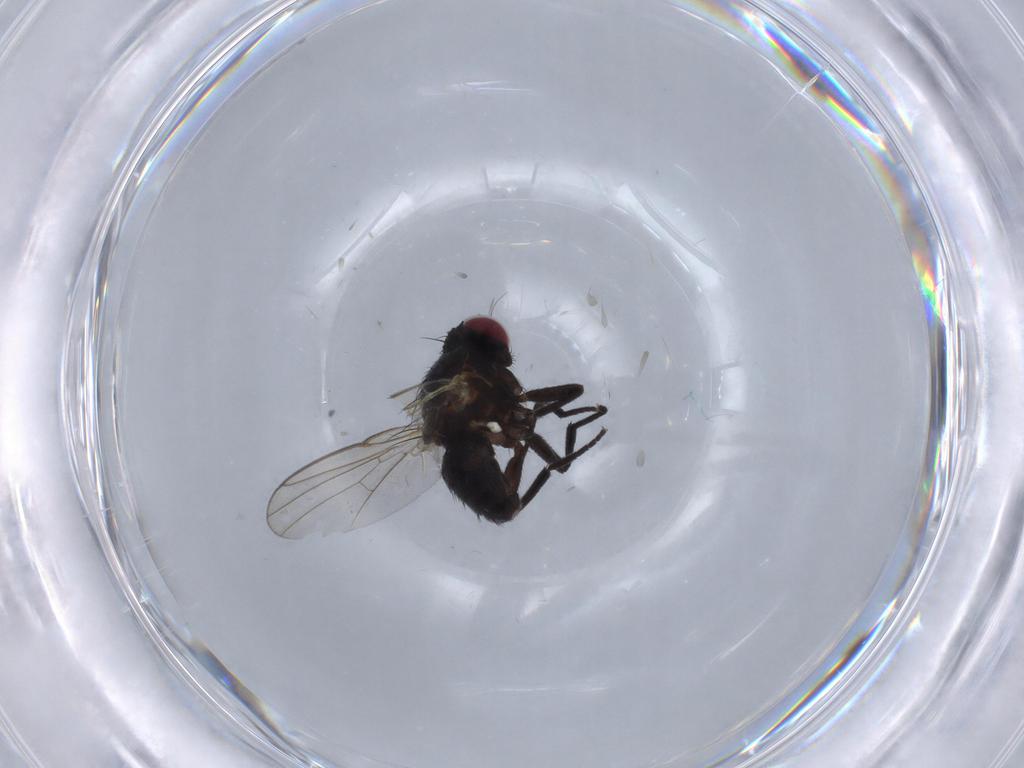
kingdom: Animalia
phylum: Arthropoda
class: Insecta
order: Diptera
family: Agromyzidae
